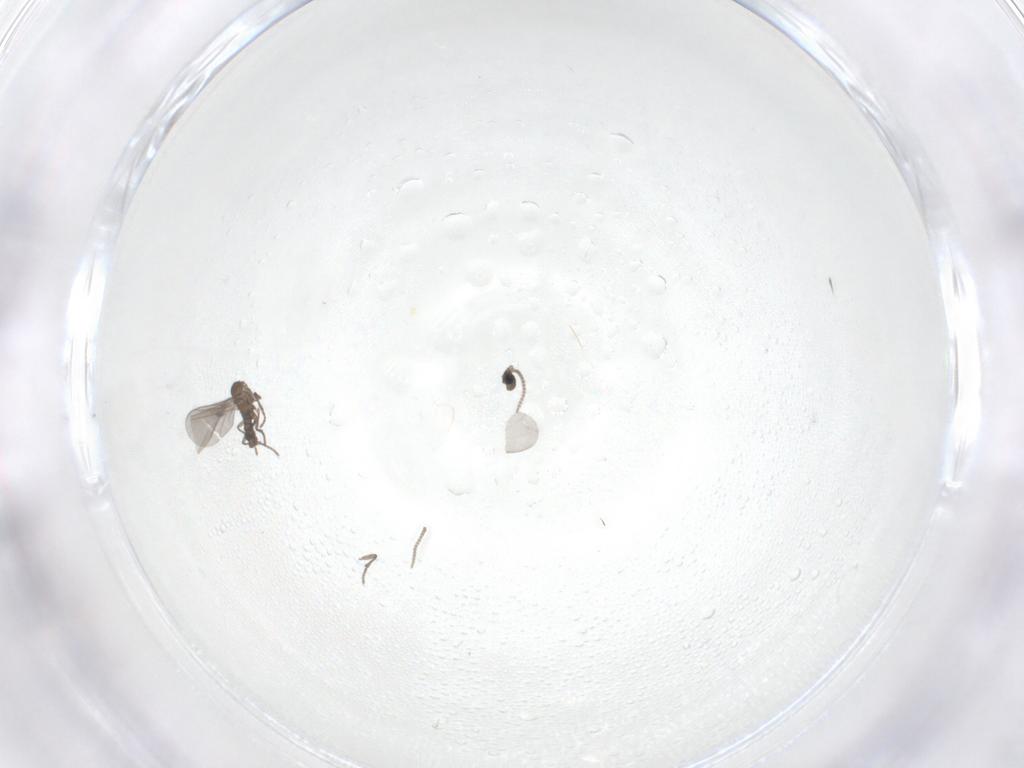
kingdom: Animalia
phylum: Arthropoda
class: Insecta
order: Diptera
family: Sciaridae
